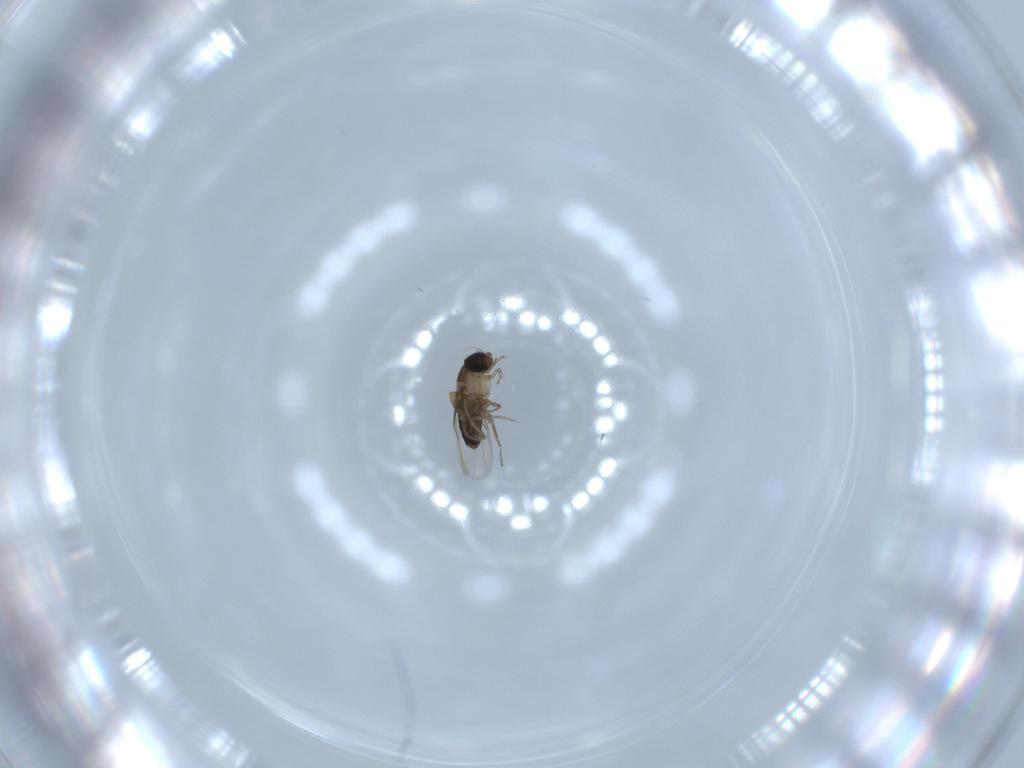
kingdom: Animalia
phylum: Arthropoda
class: Insecta
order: Diptera
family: Phoridae
